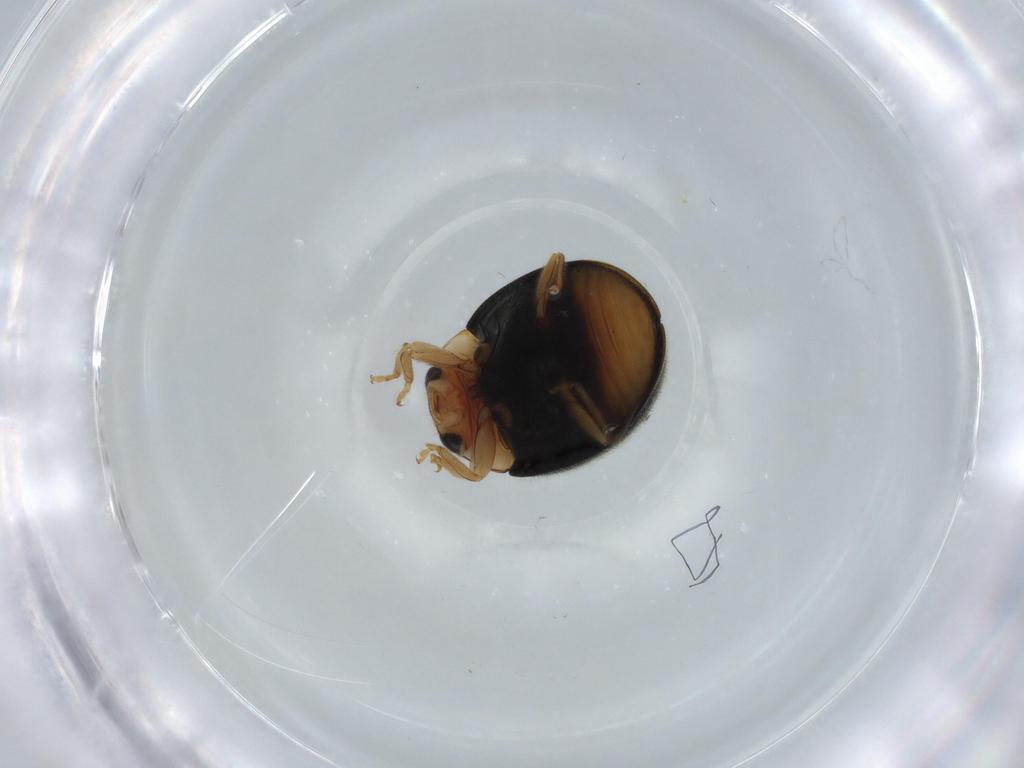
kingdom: Animalia
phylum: Arthropoda
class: Insecta
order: Coleoptera
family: Coccinellidae
